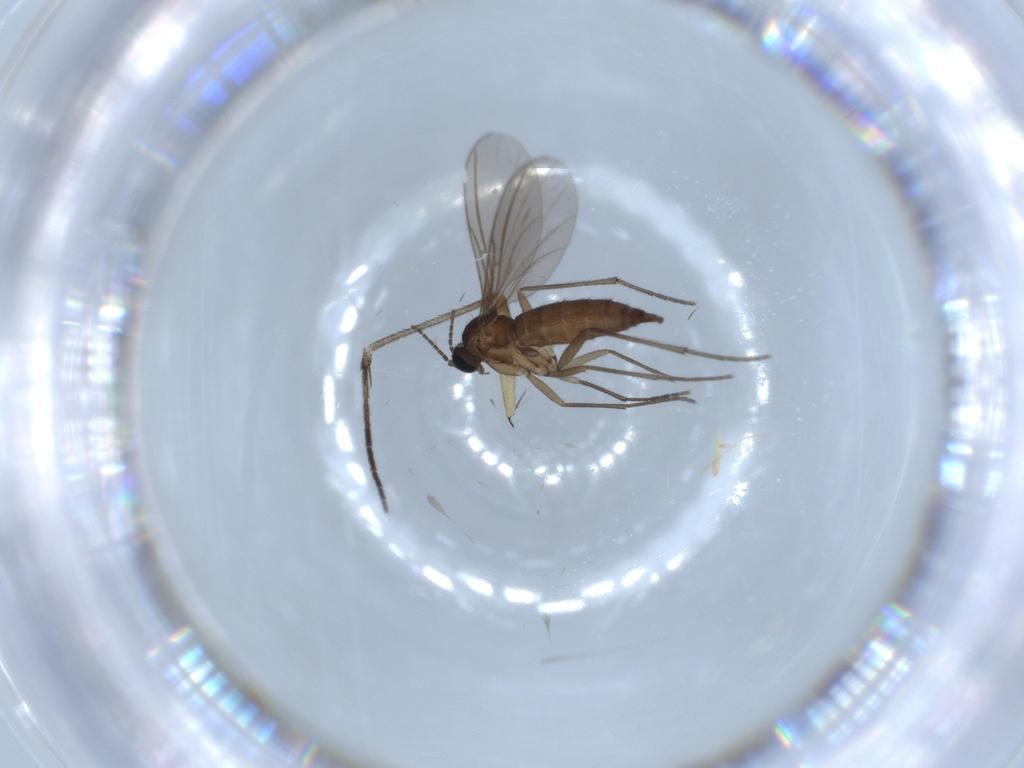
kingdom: Animalia
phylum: Arthropoda
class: Insecta
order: Diptera
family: Sciaridae
